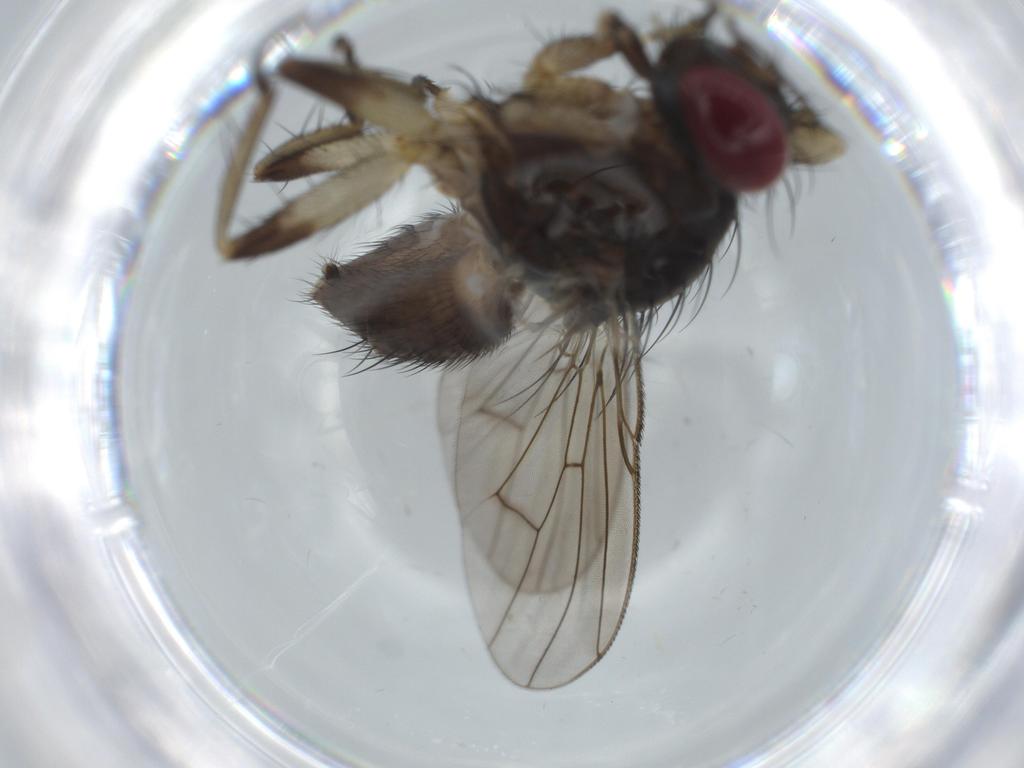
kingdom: Animalia
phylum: Arthropoda
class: Insecta
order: Diptera
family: Muscidae
